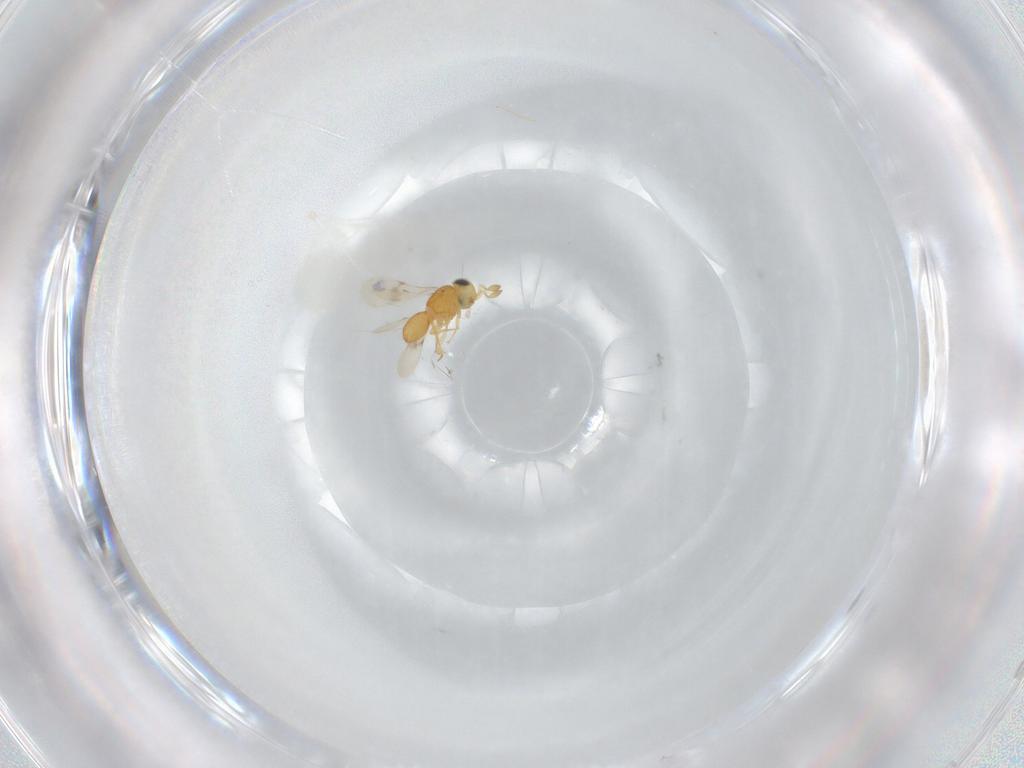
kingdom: Animalia
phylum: Arthropoda
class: Insecta
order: Hymenoptera
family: Scelionidae
